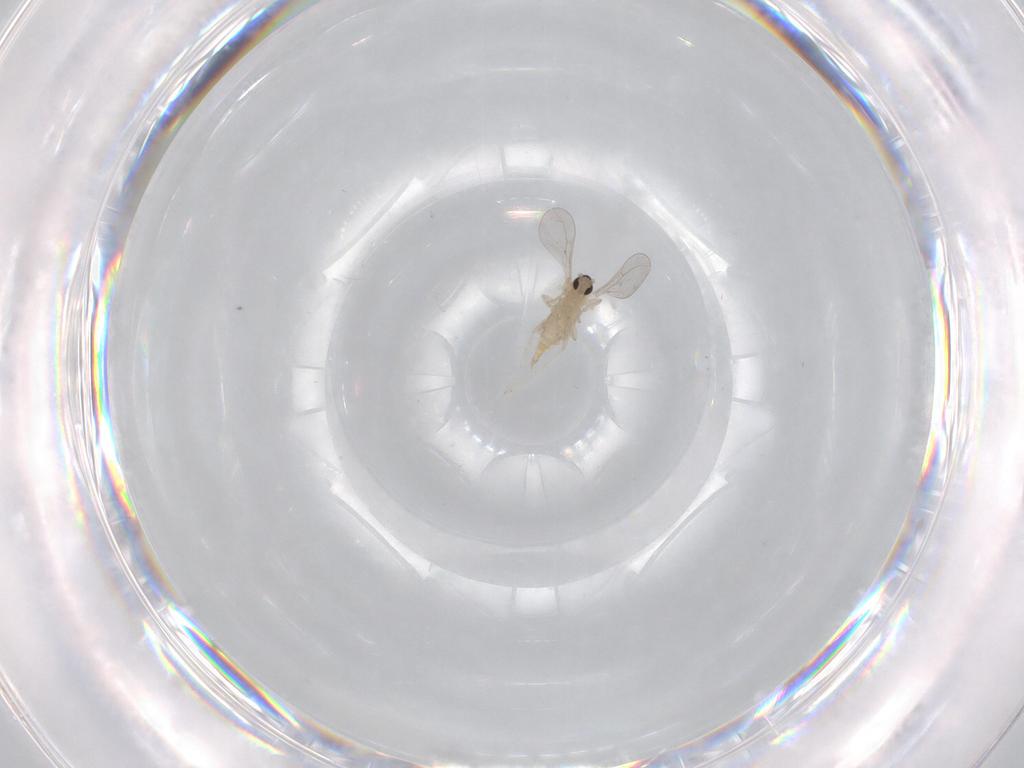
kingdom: Animalia
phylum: Arthropoda
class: Insecta
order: Diptera
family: Cecidomyiidae
